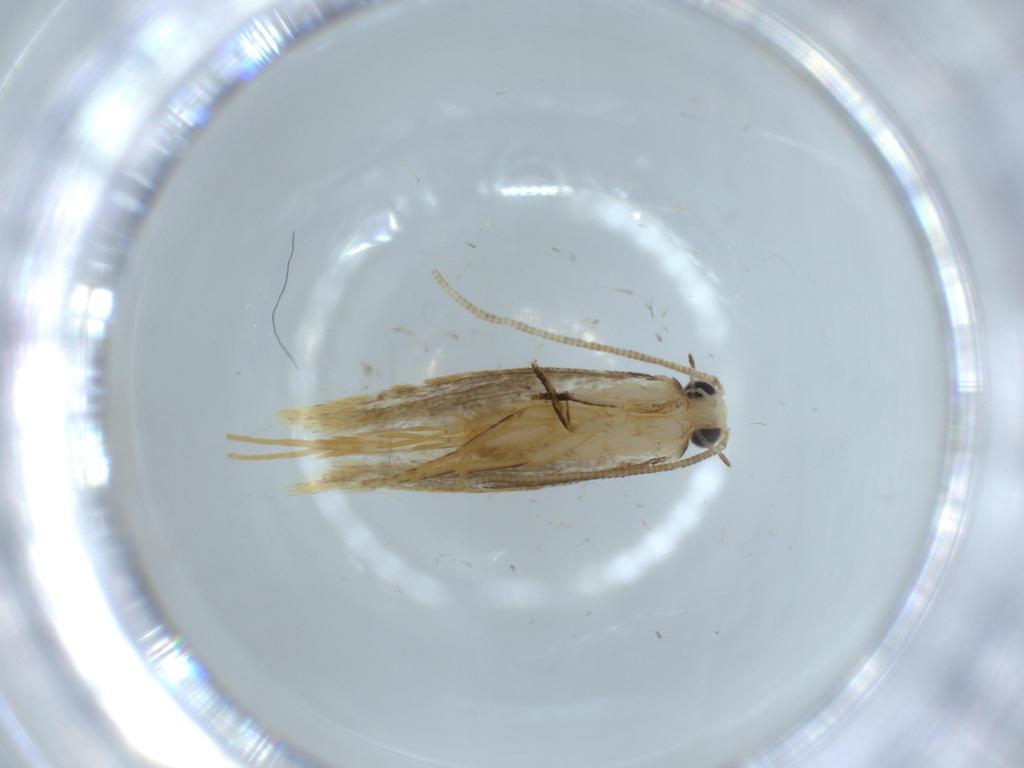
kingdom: Animalia
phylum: Arthropoda
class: Insecta
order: Lepidoptera
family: Tineidae
